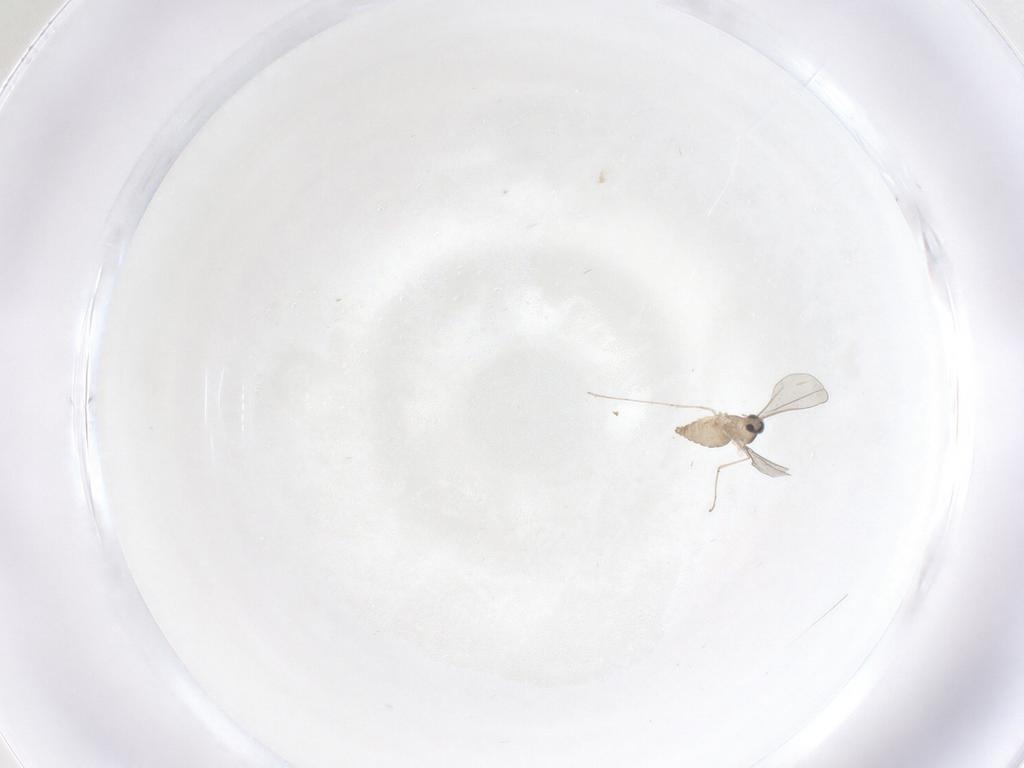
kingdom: Animalia
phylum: Arthropoda
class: Insecta
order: Diptera
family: Cecidomyiidae
